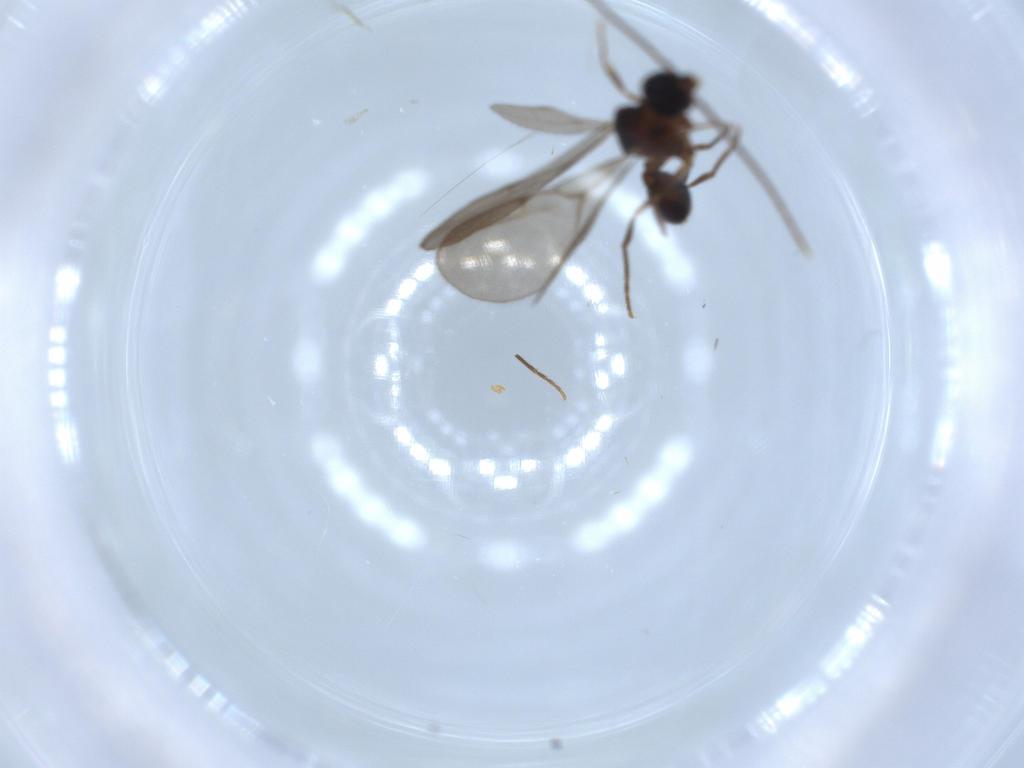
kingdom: Animalia
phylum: Arthropoda
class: Insecta
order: Hymenoptera
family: Formicidae
